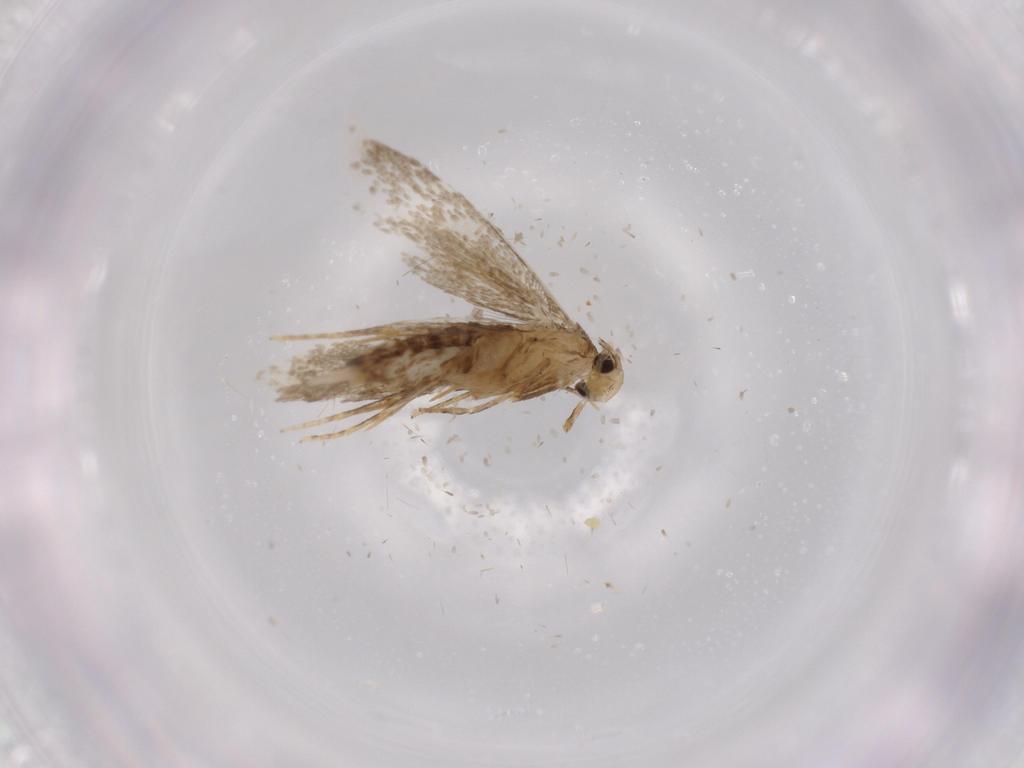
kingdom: Animalia
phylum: Arthropoda
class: Insecta
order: Lepidoptera
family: Tineidae
